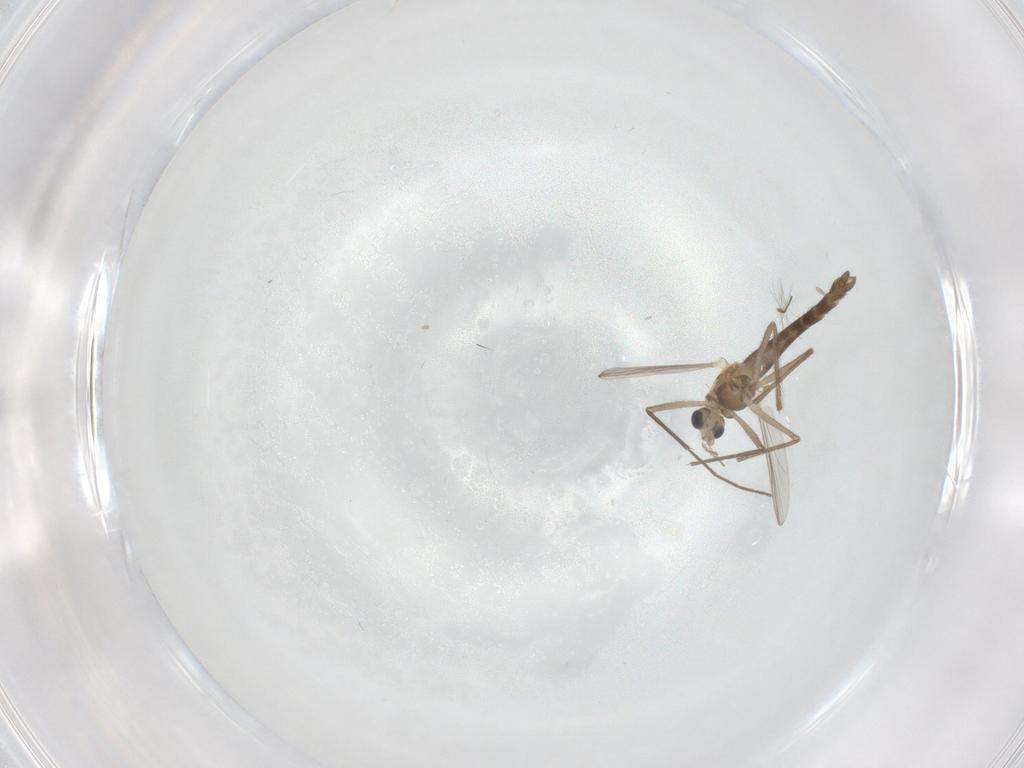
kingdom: Animalia
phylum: Arthropoda
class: Insecta
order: Diptera
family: Chironomidae
